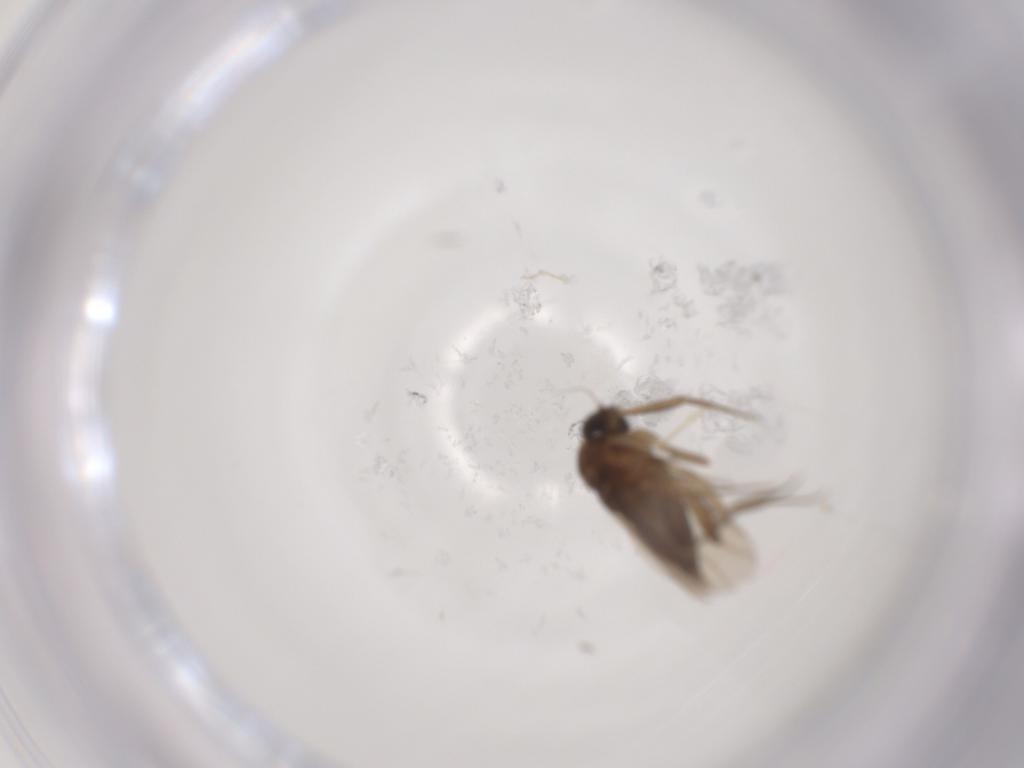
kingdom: Animalia
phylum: Arthropoda
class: Insecta
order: Diptera
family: Phoridae
